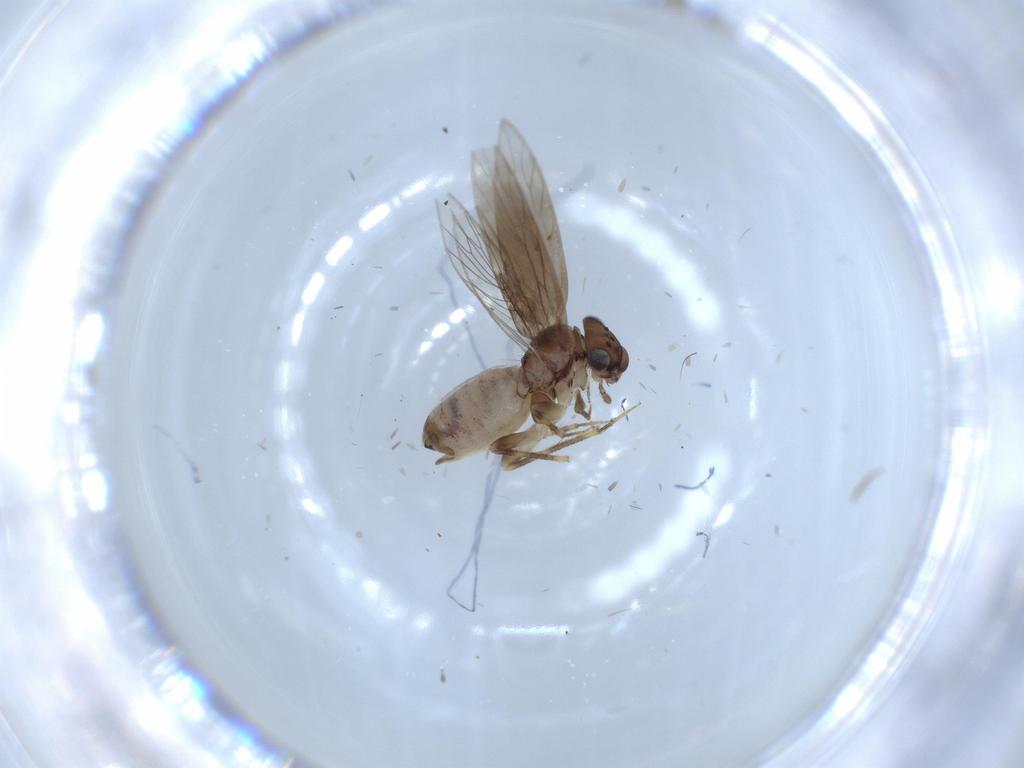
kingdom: Animalia
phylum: Arthropoda
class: Insecta
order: Psocodea
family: Lepidopsocidae
